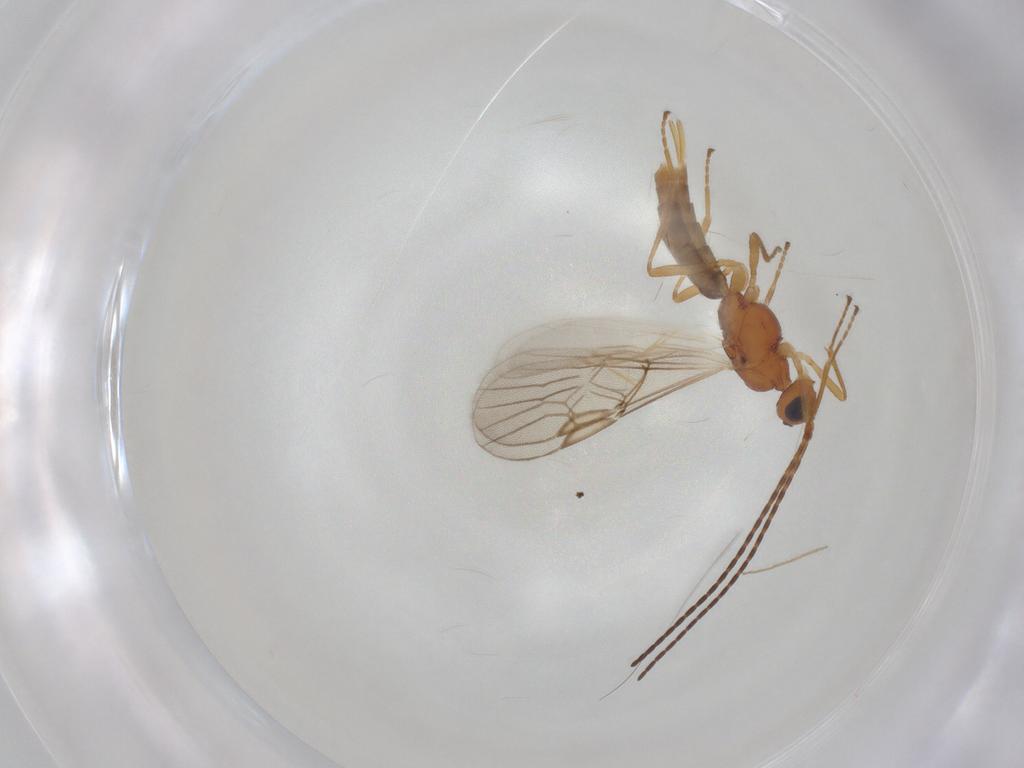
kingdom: Animalia
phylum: Arthropoda
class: Insecta
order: Hymenoptera
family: Braconidae
